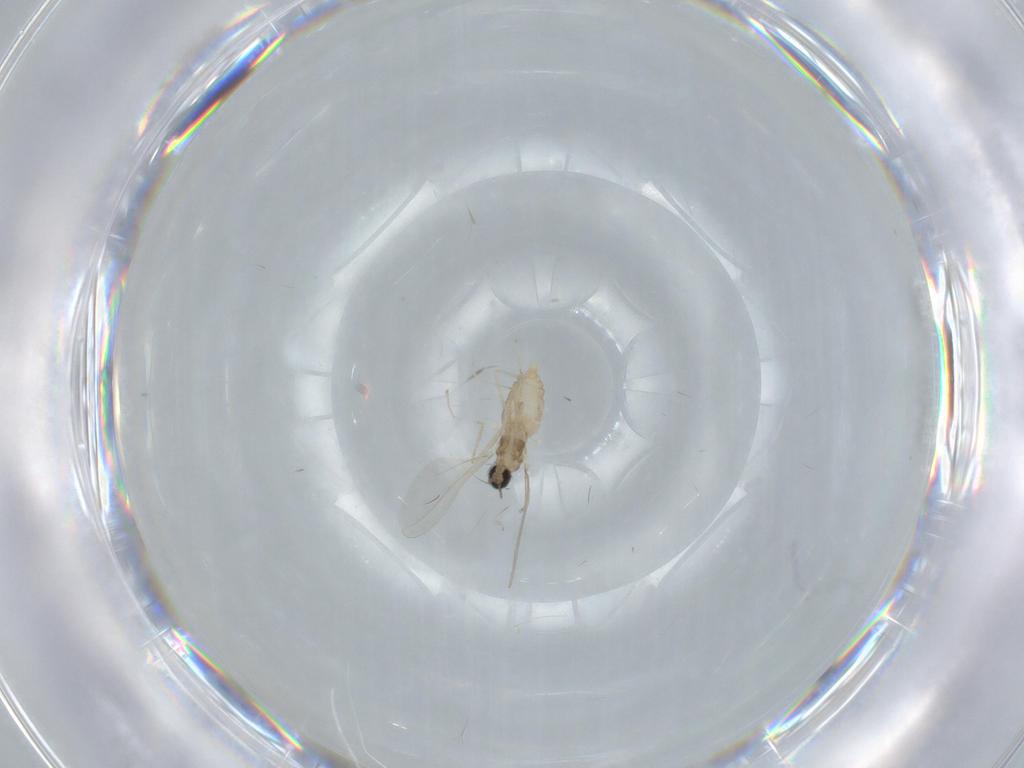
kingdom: Animalia
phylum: Arthropoda
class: Insecta
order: Diptera
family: Cecidomyiidae
